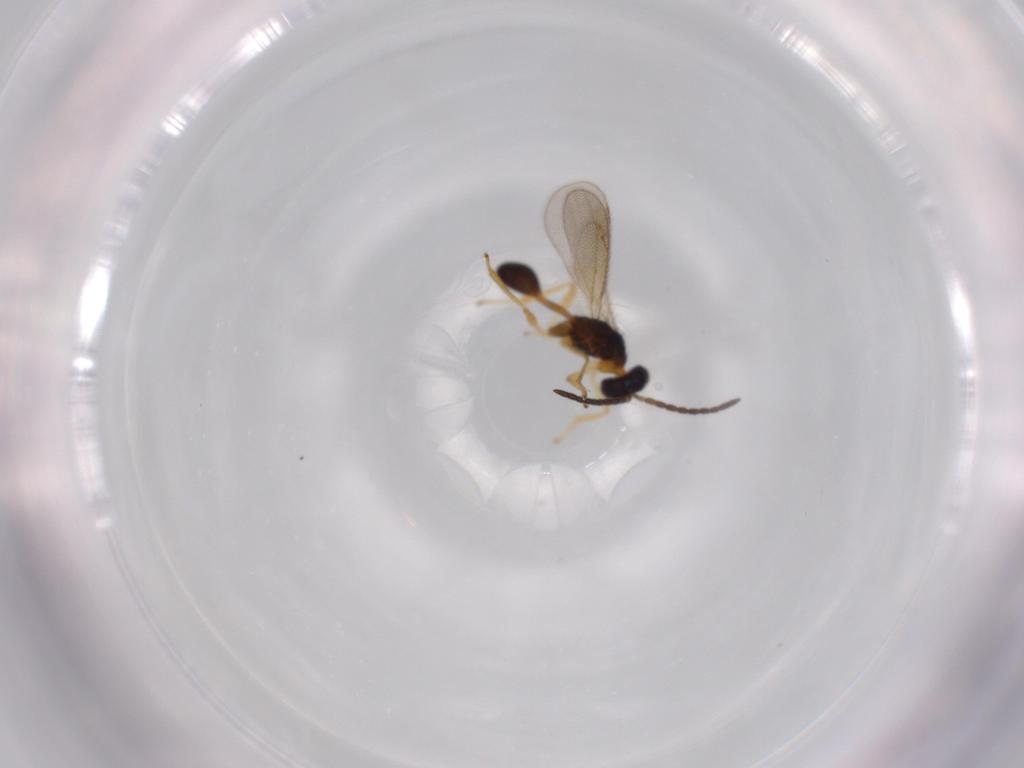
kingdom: Animalia
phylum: Arthropoda
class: Insecta
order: Hymenoptera
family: Diparidae
